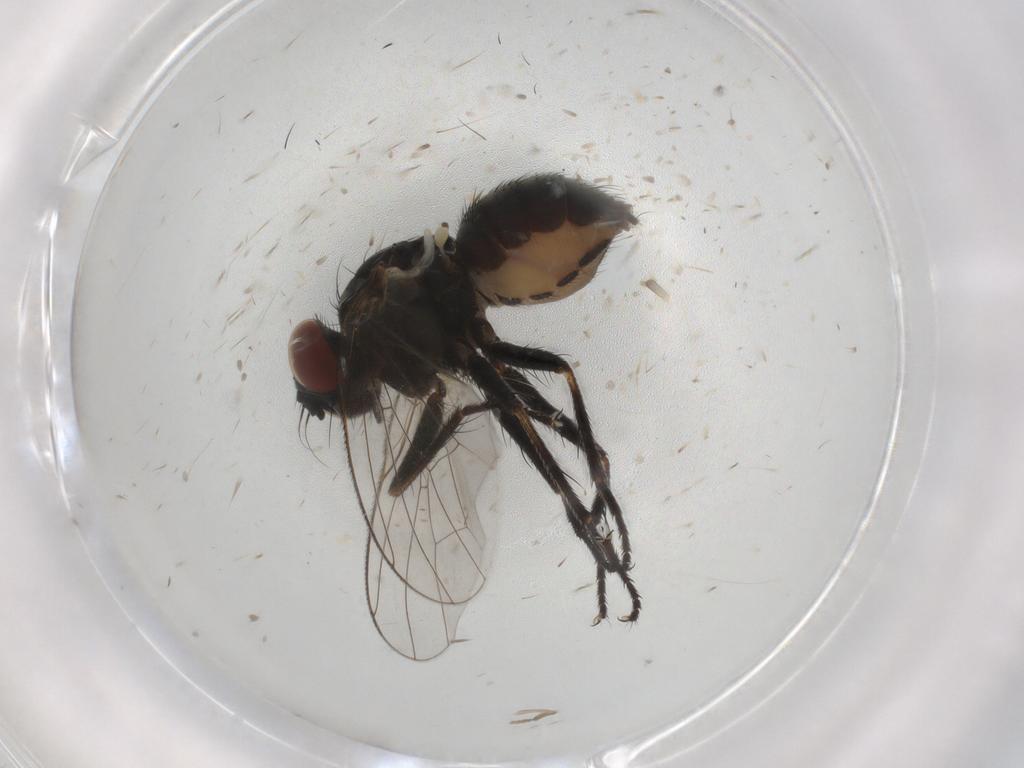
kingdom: Animalia
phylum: Arthropoda
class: Insecta
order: Diptera
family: Muscidae
